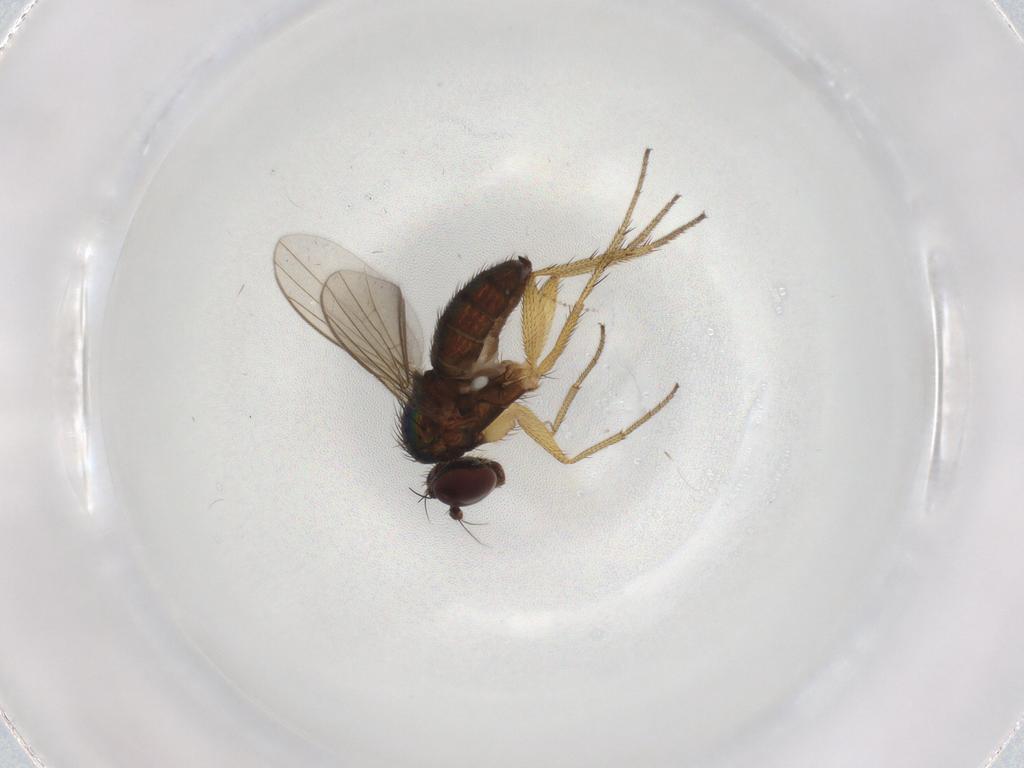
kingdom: Animalia
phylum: Arthropoda
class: Insecta
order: Diptera
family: Dolichopodidae
